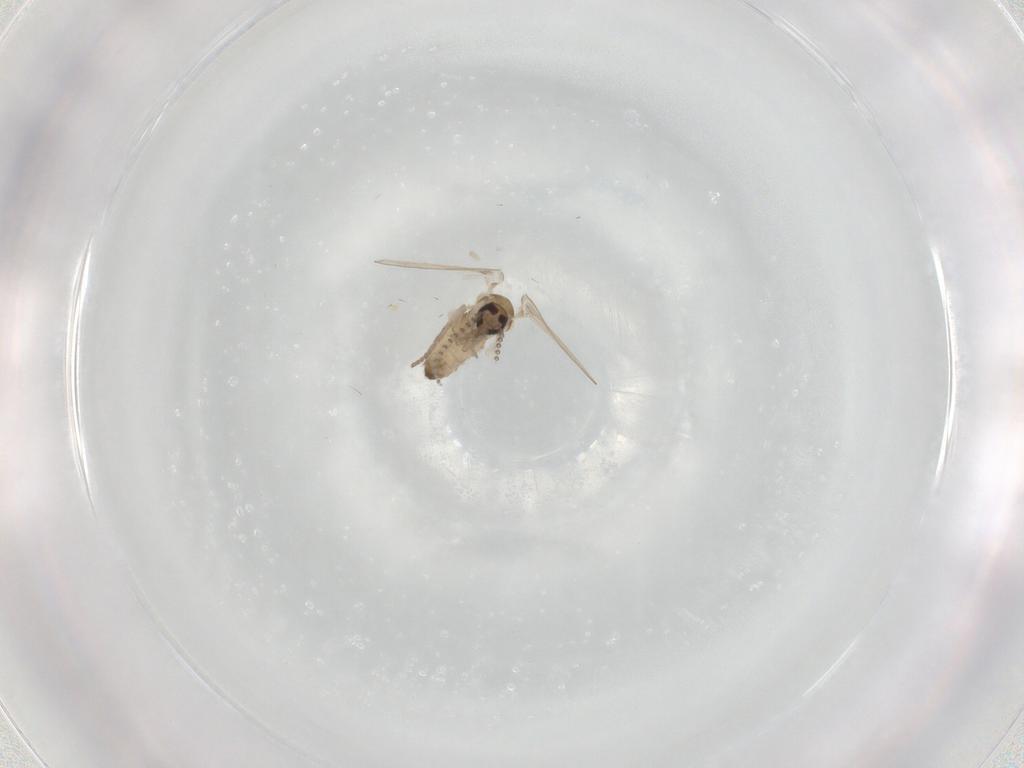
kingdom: Animalia
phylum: Arthropoda
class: Insecta
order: Diptera
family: Psychodidae
